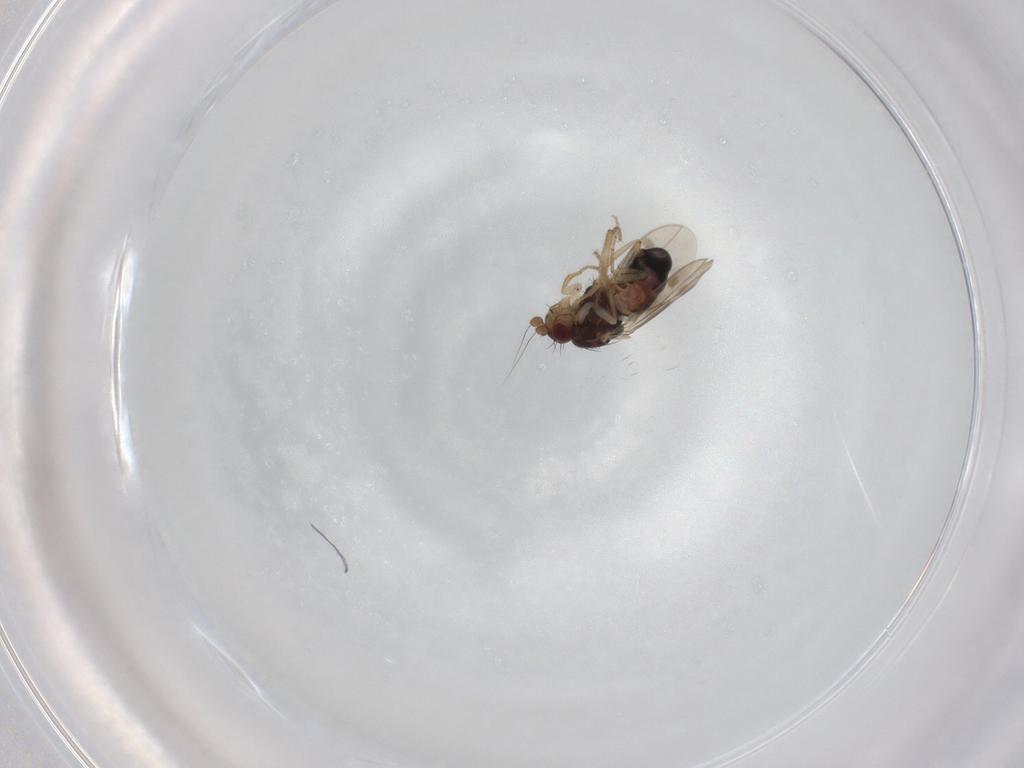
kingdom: Animalia
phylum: Arthropoda
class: Insecta
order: Diptera
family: Sphaeroceridae
